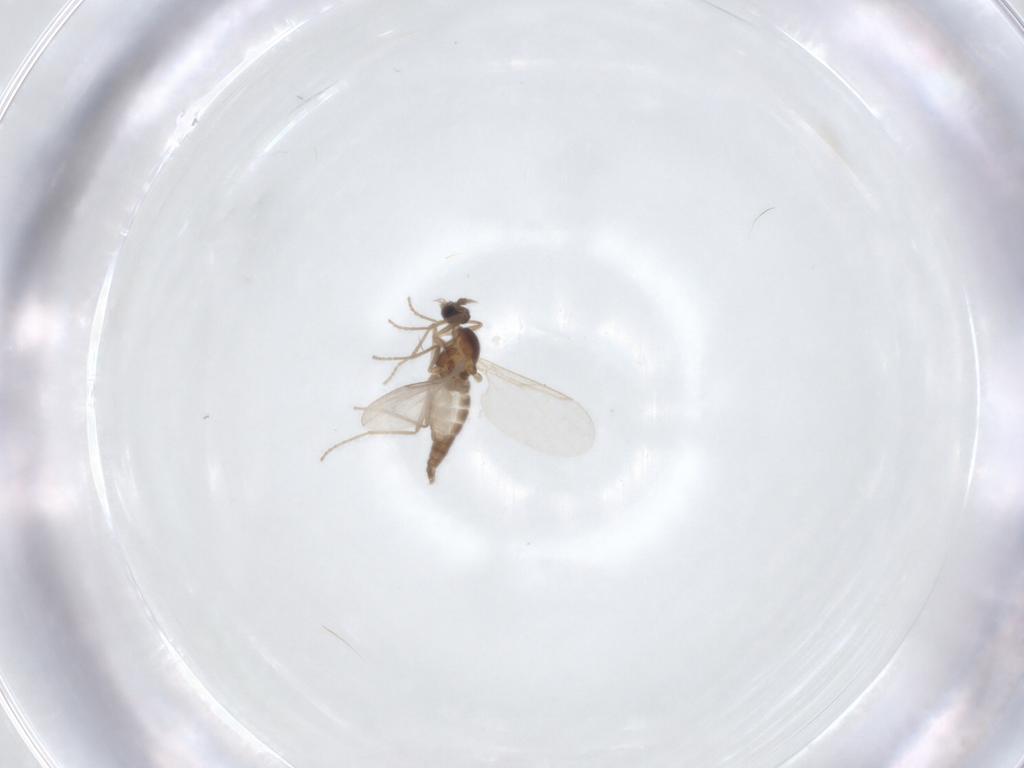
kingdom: Animalia
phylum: Arthropoda
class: Insecta
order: Diptera
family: Cecidomyiidae
